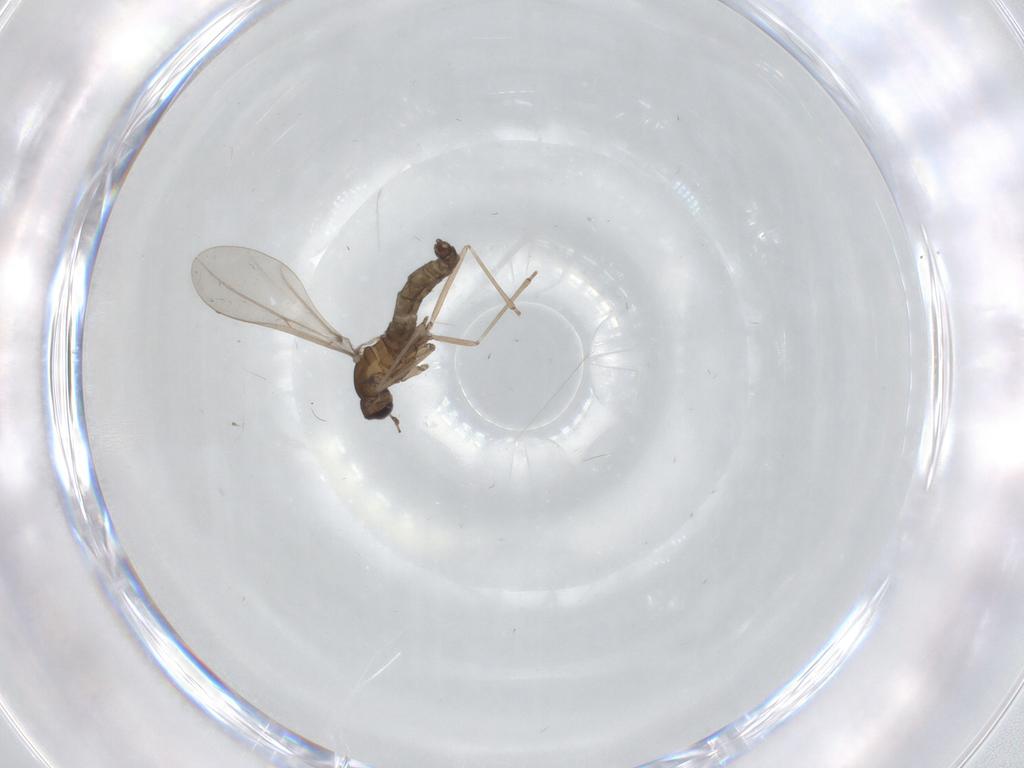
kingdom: Animalia
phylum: Arthropoda
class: Insecta
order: Diptera
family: Cecidomyiidae
